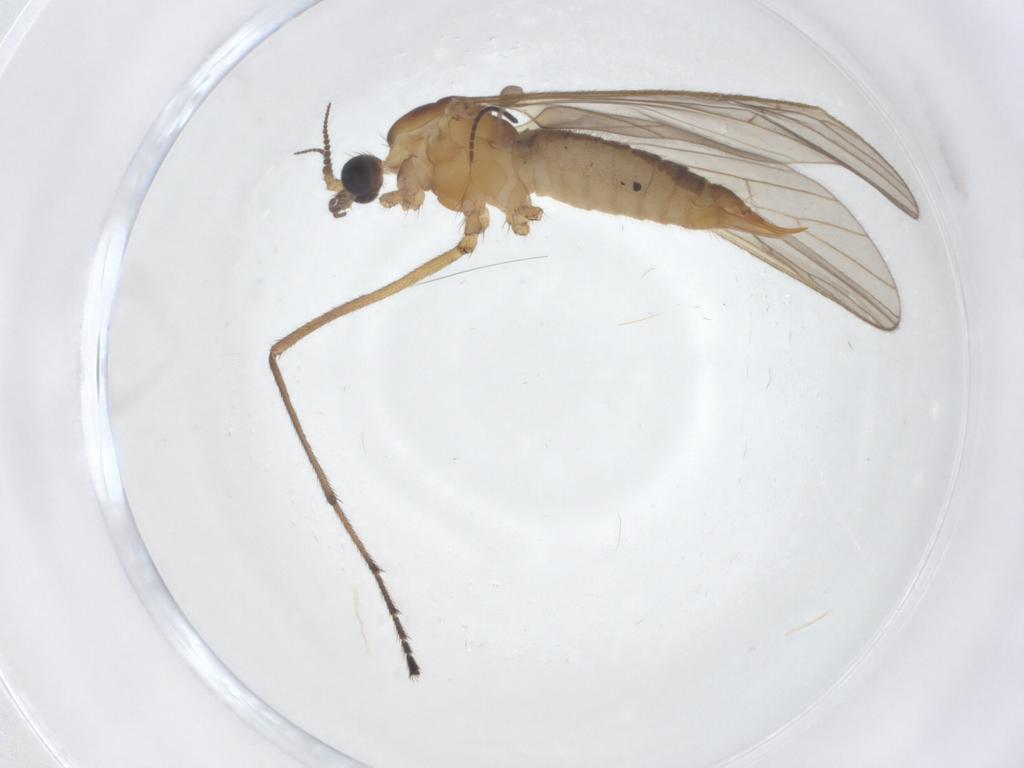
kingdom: Animalia
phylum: Arthropoda
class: Insecta
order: Diptera
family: Limoniidae
